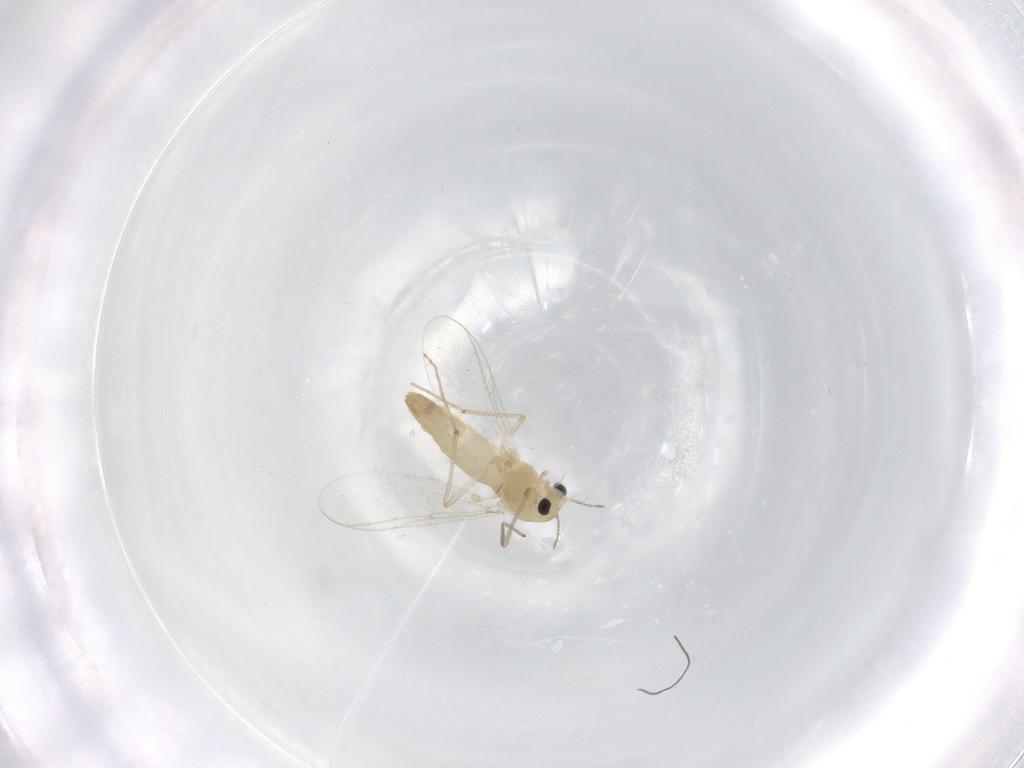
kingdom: Animalia
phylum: Arthropoda
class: Insecta
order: Diptera
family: Chironomidae
